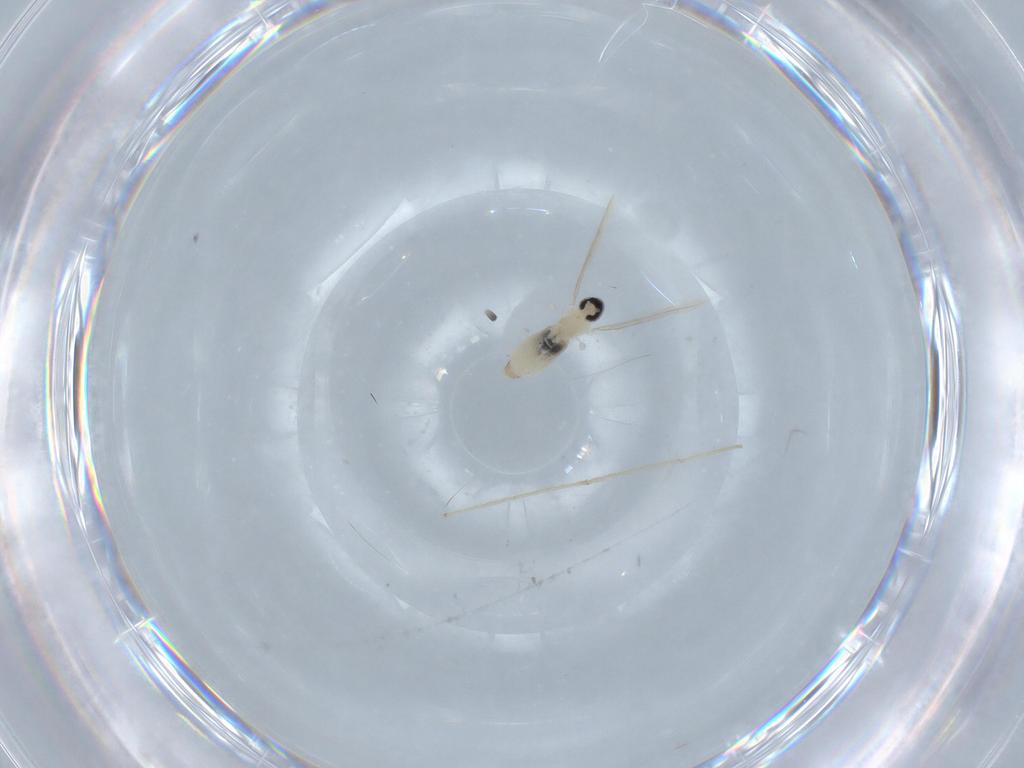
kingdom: Animalia
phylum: Arthropoda
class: Insecta
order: Diptera
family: Cecidomyiidae
